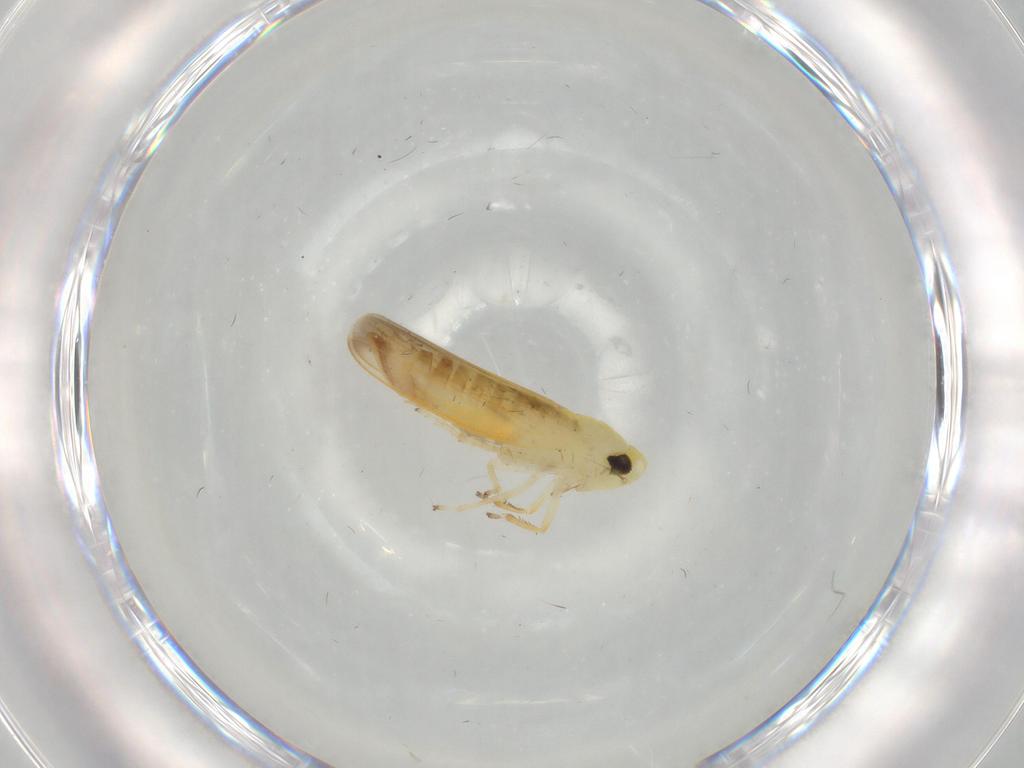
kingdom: Animalia
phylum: Arthropoda
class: Insecta
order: Hemiptera
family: Cicadellidae
